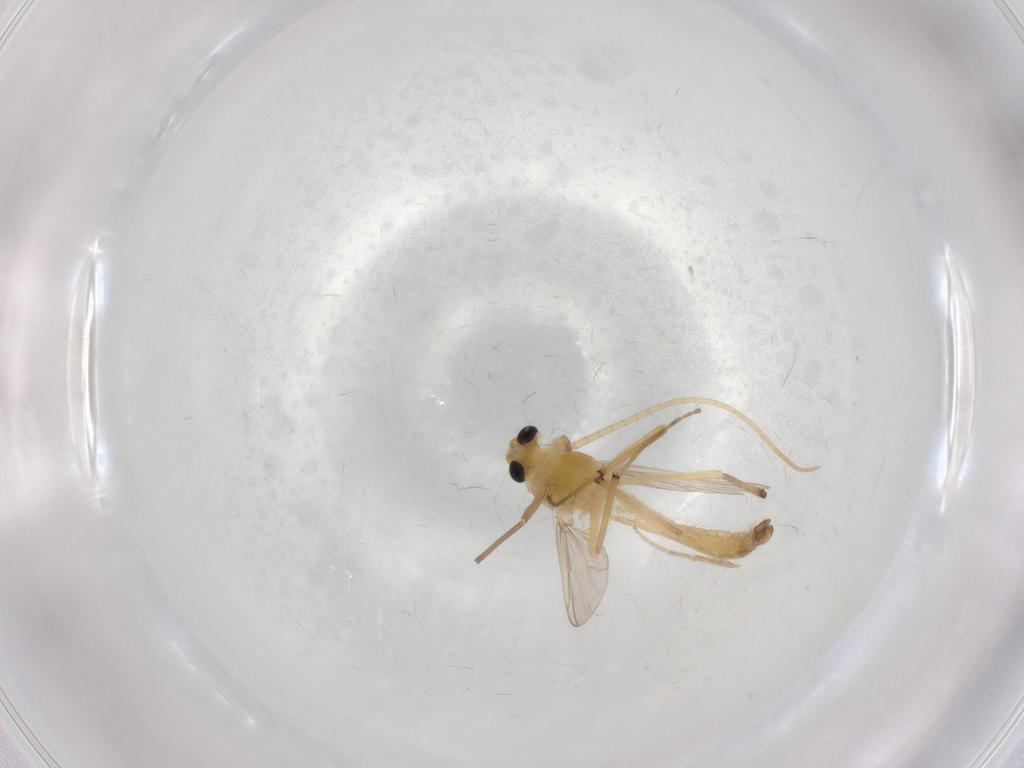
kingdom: Animalia
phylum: Arthropoda
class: Insecta
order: Diptera
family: Chironomidae
